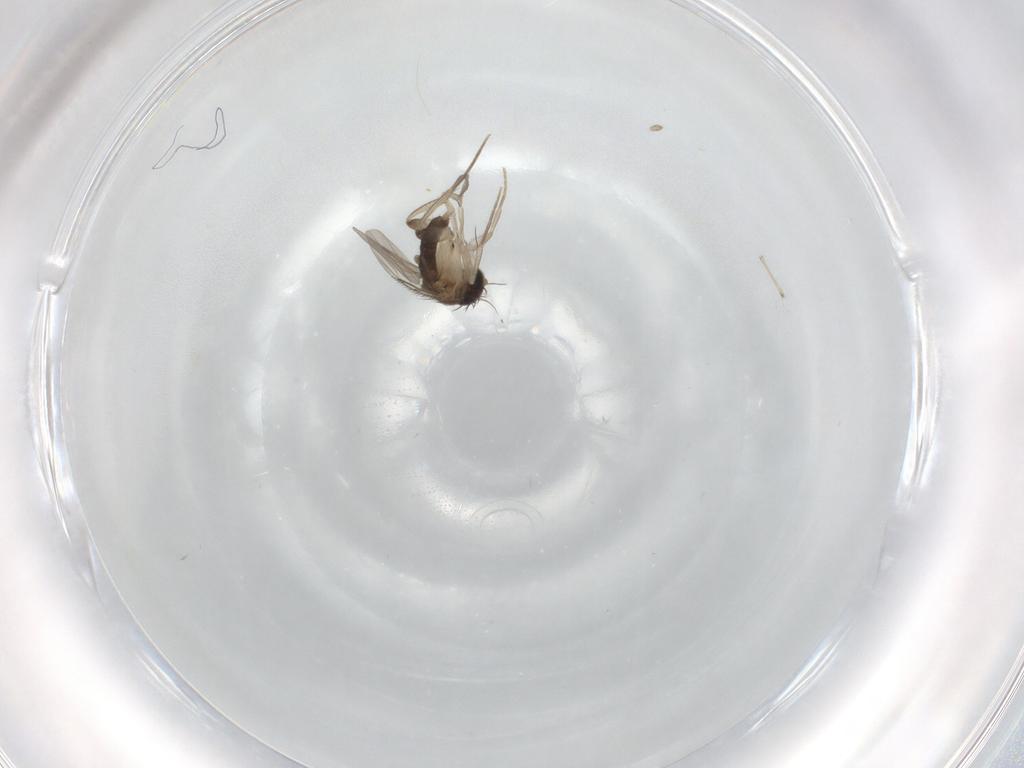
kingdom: Animalia
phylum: Arthropoda
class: Insecta
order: Diptera
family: Phoridae
